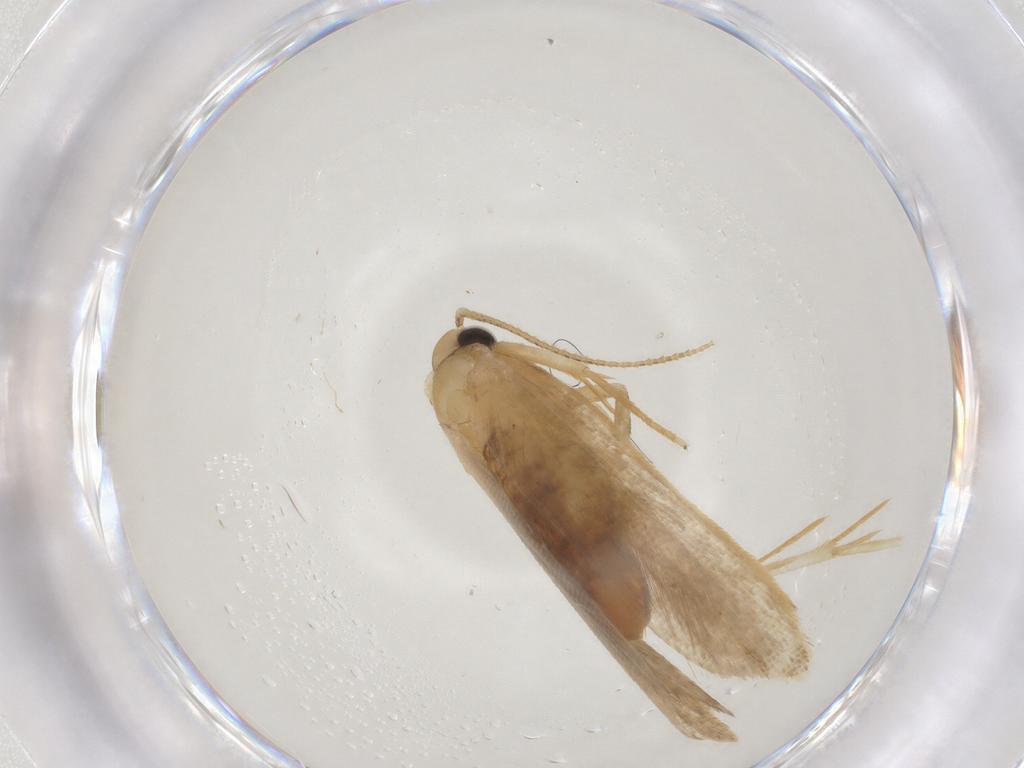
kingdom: Animalia
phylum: Arthropoda
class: Insecta
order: Lepidoptera
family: Gelechiidae
